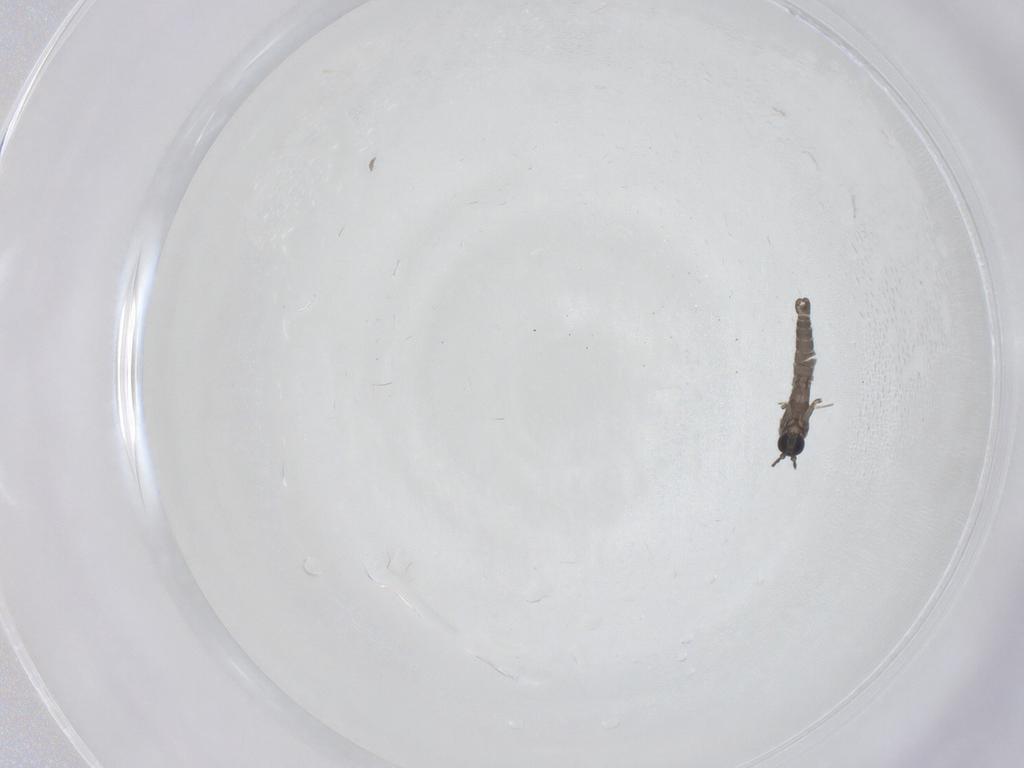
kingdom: Animalia
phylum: Arthropoda
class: Insecta
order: Diptera
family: Sciaridae
